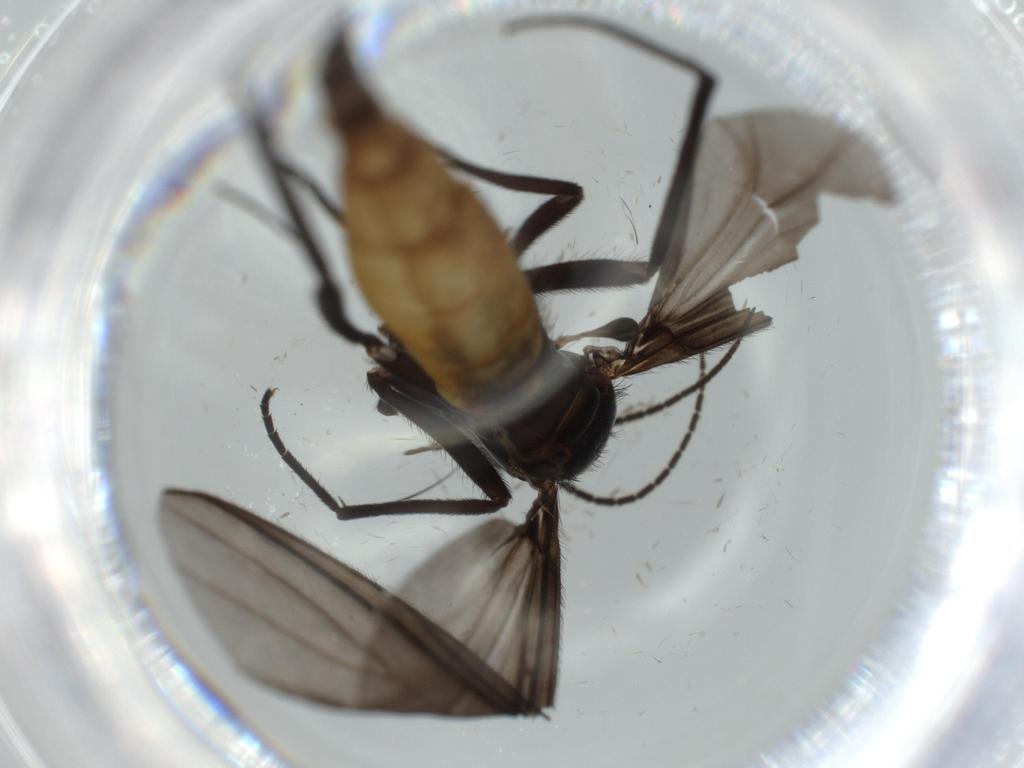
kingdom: Animalia
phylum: Arthropoda
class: Insecta
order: Diptera
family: Sciaridae
